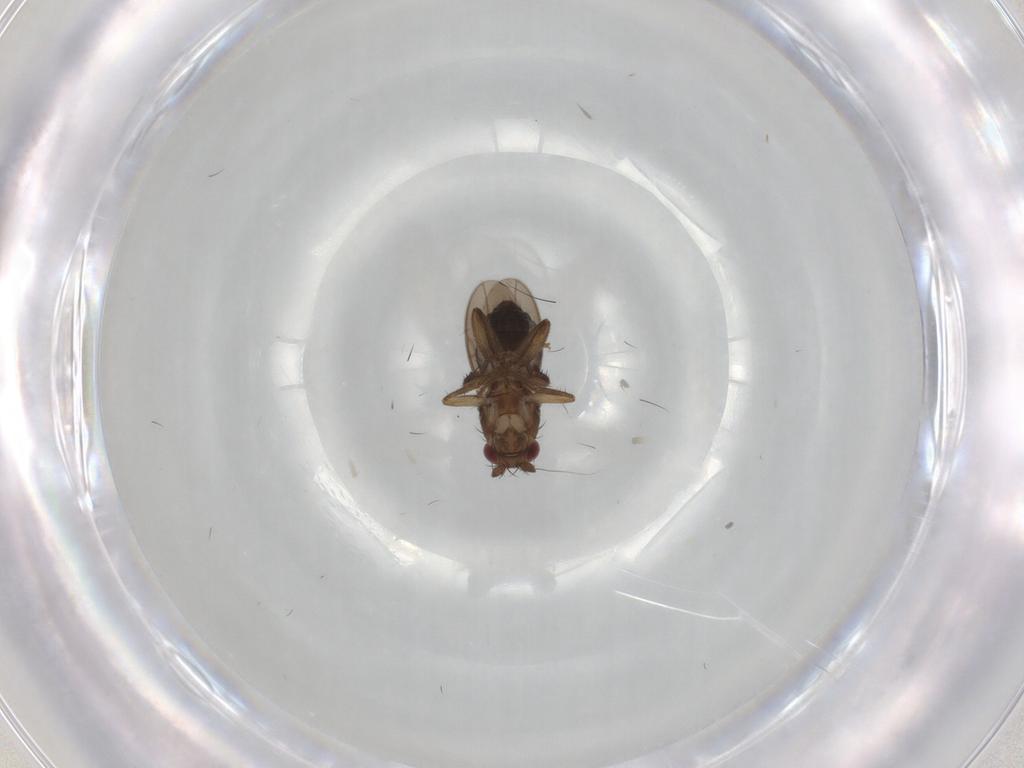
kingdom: Animalia
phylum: Arthropoda
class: Insecta
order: Diptera
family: Sphaeroceridae
